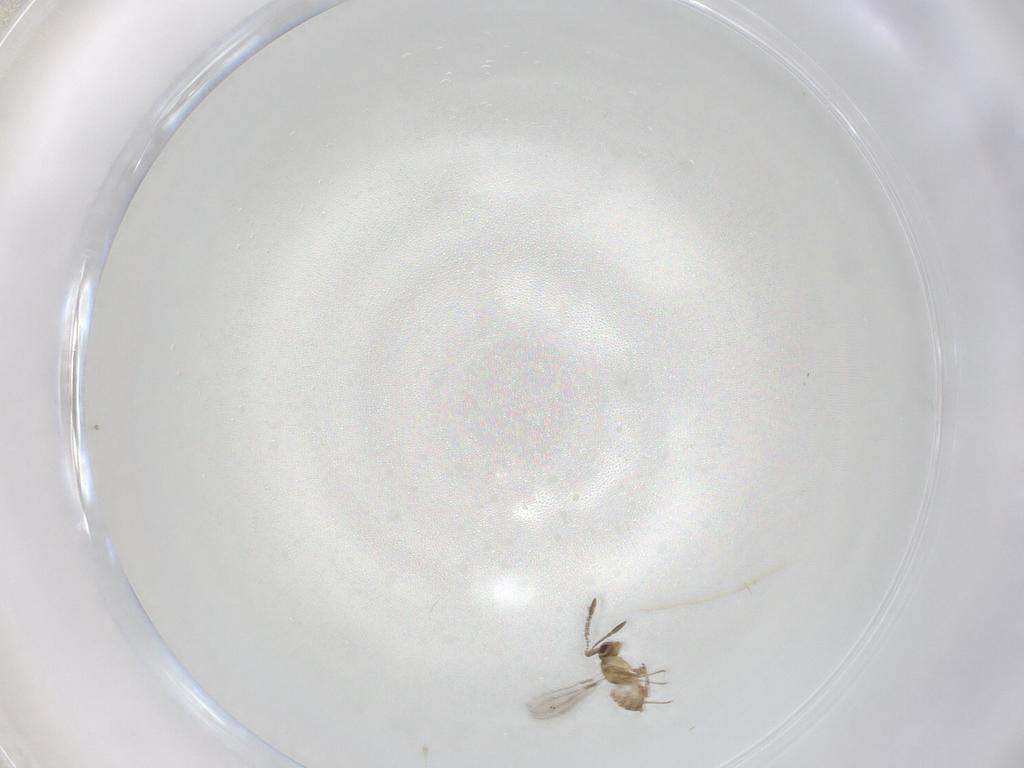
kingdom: Animalia
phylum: Arthropoda
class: Insecta
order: Hymenoptera
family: Mymaridae
